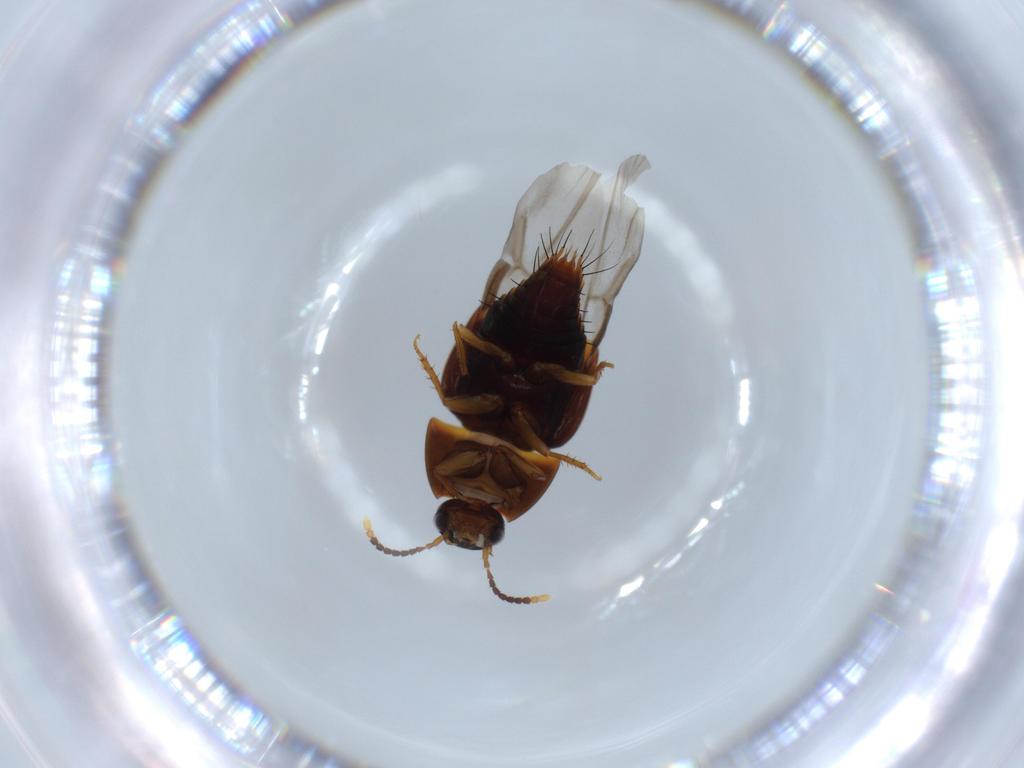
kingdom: Animalia
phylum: Arthropoda
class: Insecta
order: Coleoptera
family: Staphylinidae
